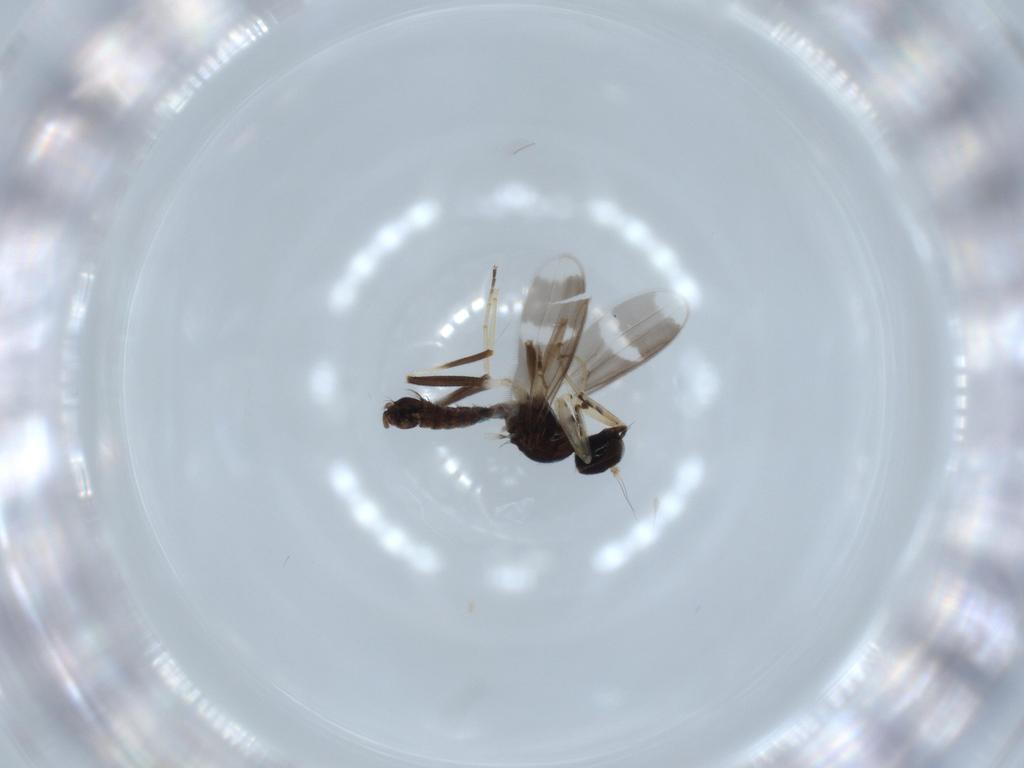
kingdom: Animalia
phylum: Arthropoda
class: Insecta
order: Diptera
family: Hybotidae
